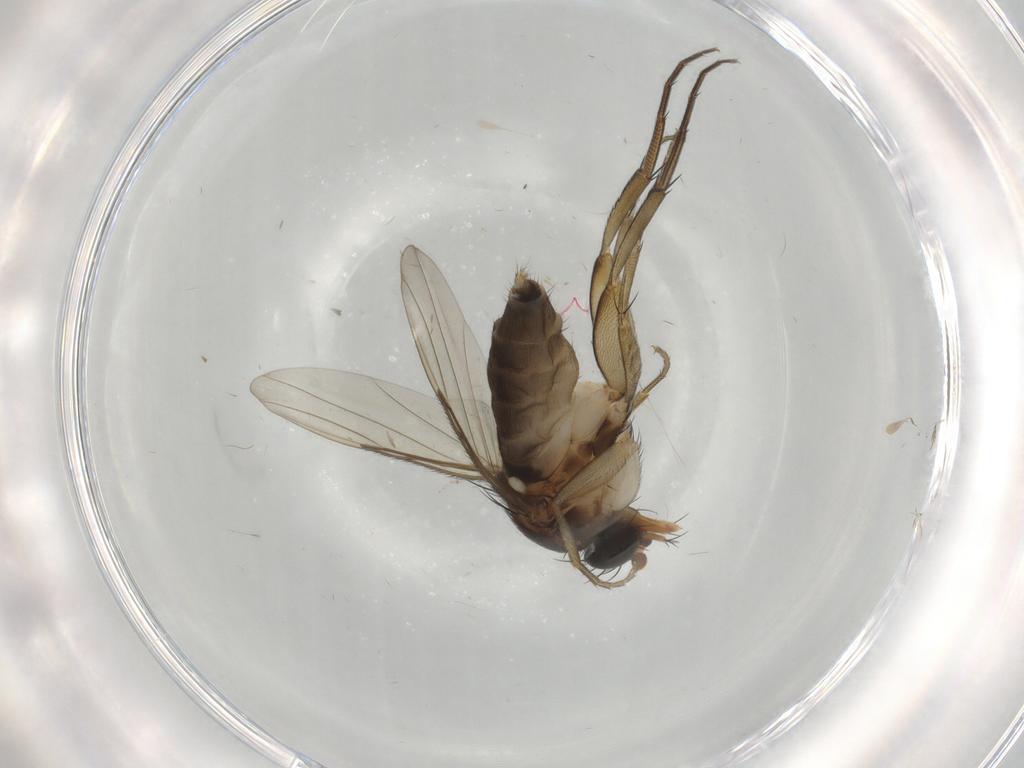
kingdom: Animalia
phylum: Arthropoda
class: Insecta
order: Diptera
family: Phoridae
